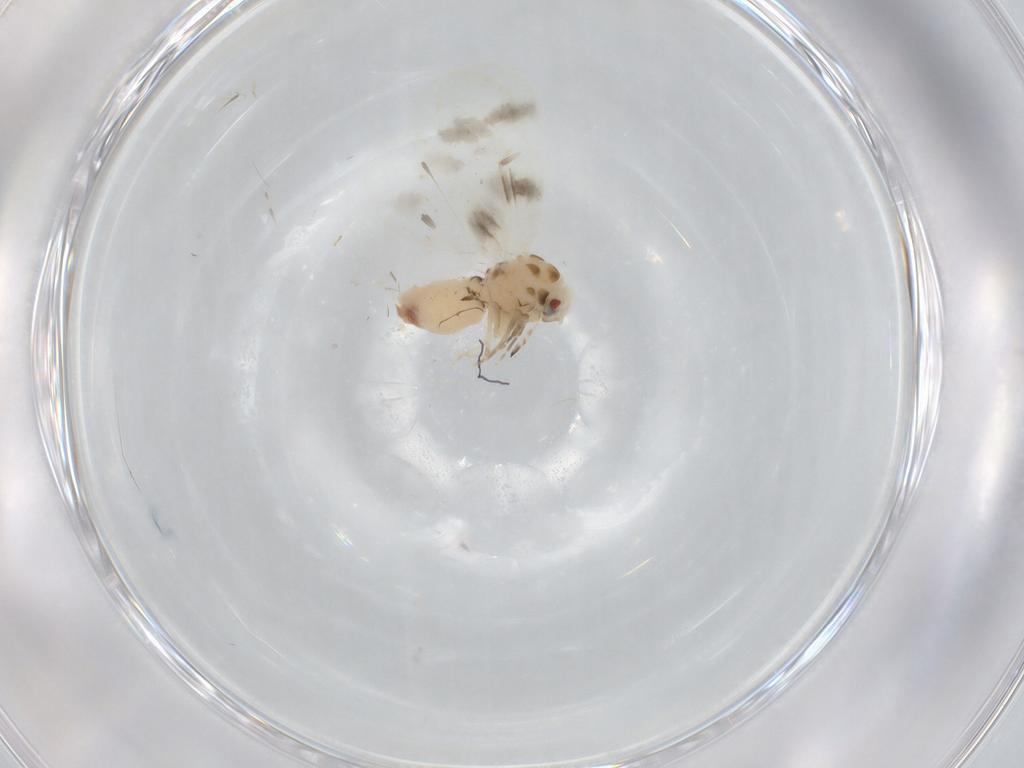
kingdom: Animalia
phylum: Arthropoda
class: Insecta
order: Hemiptera
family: Aleyrodidae
